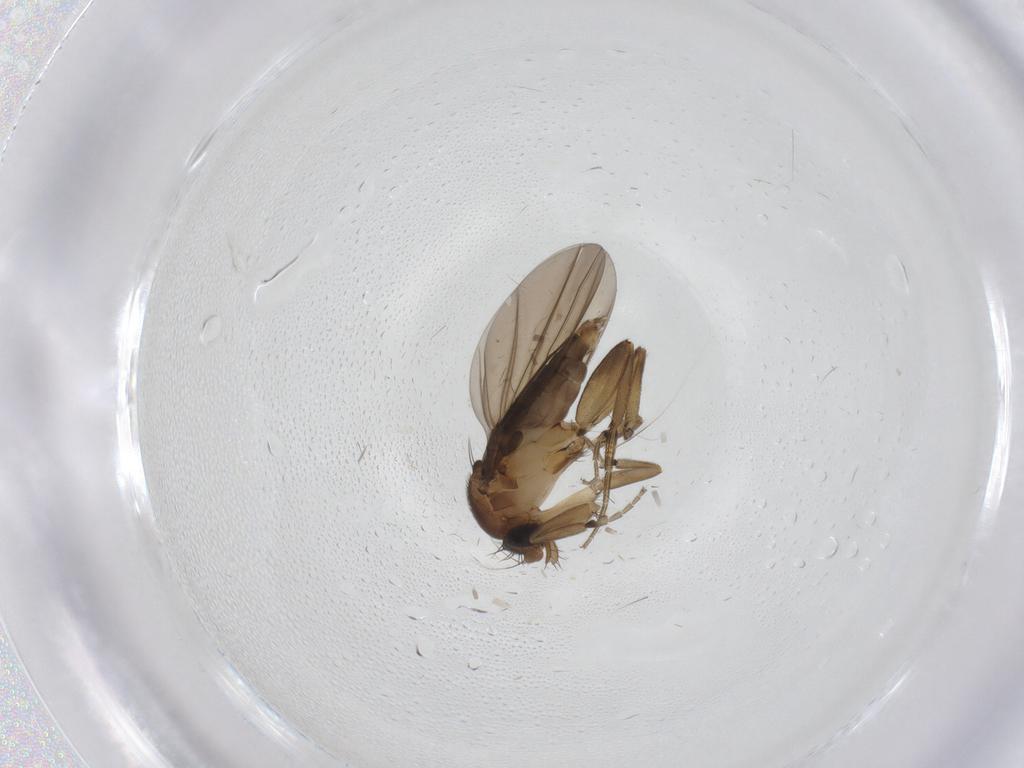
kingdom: Animalia
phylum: Arthropoda
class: Insecta
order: Diptera
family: Phoridae
